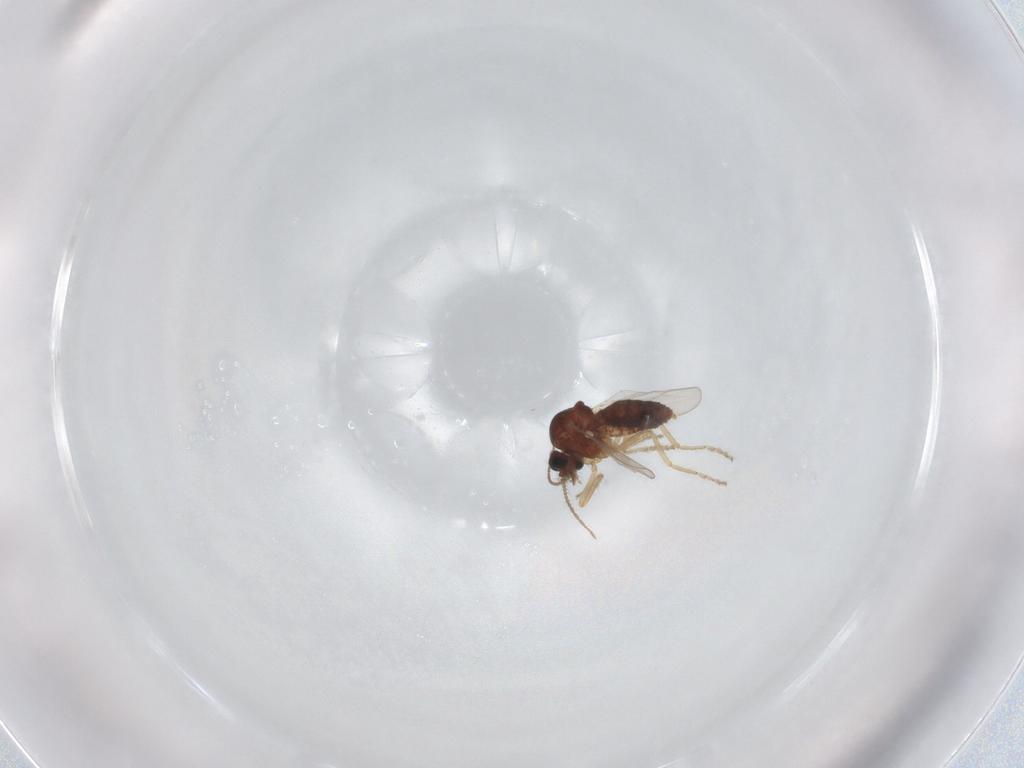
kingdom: Animalia
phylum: Arthropoda
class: Insecta
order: Diptera
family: Ceratopogonidae
